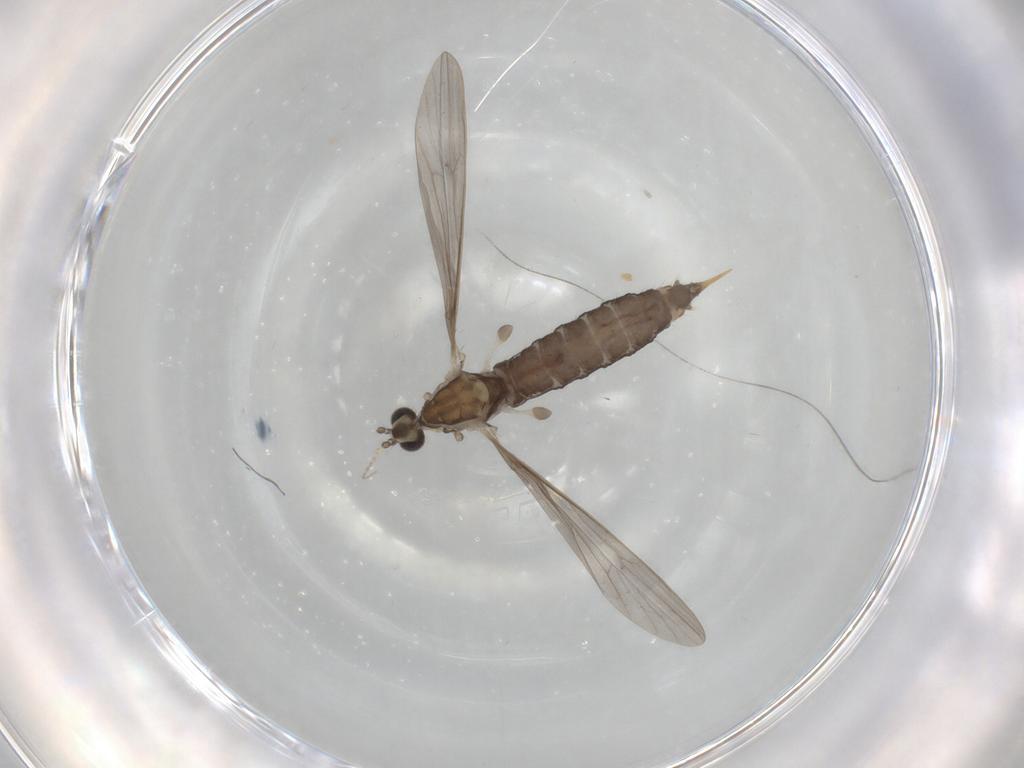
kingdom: Animalia
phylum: Arthropoda
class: Insecta
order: Diptera
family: Limoniidae
